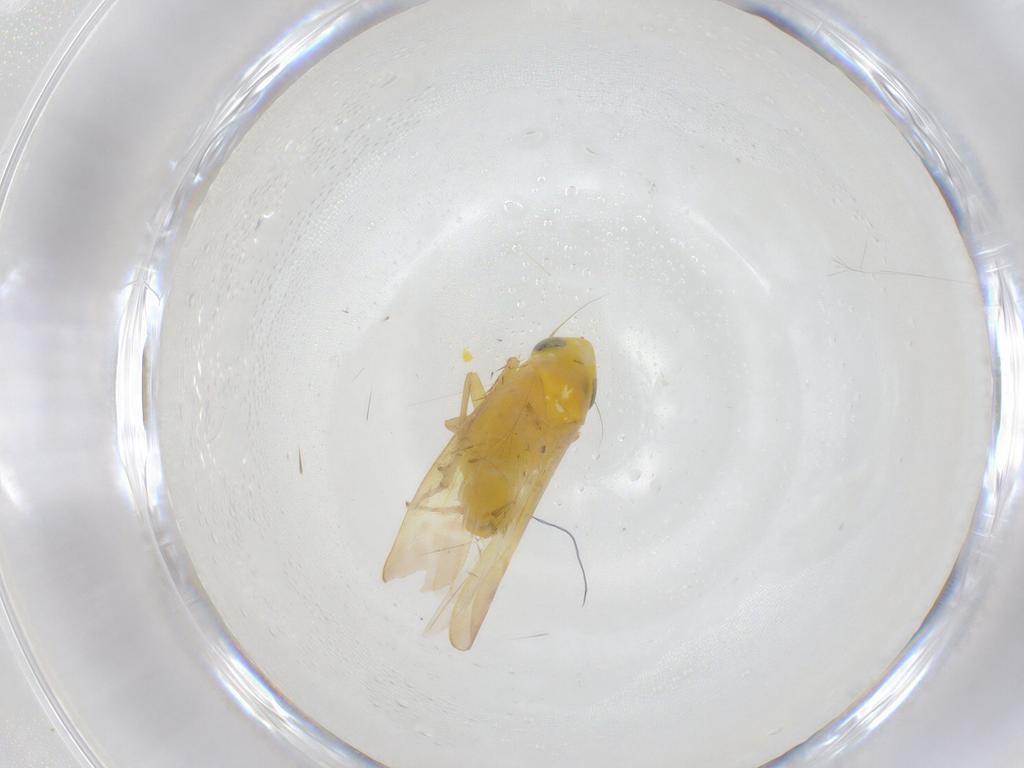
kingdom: Animalia
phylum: Arthropoda
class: Insecta
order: Hemiptera
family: Cicadellidae
